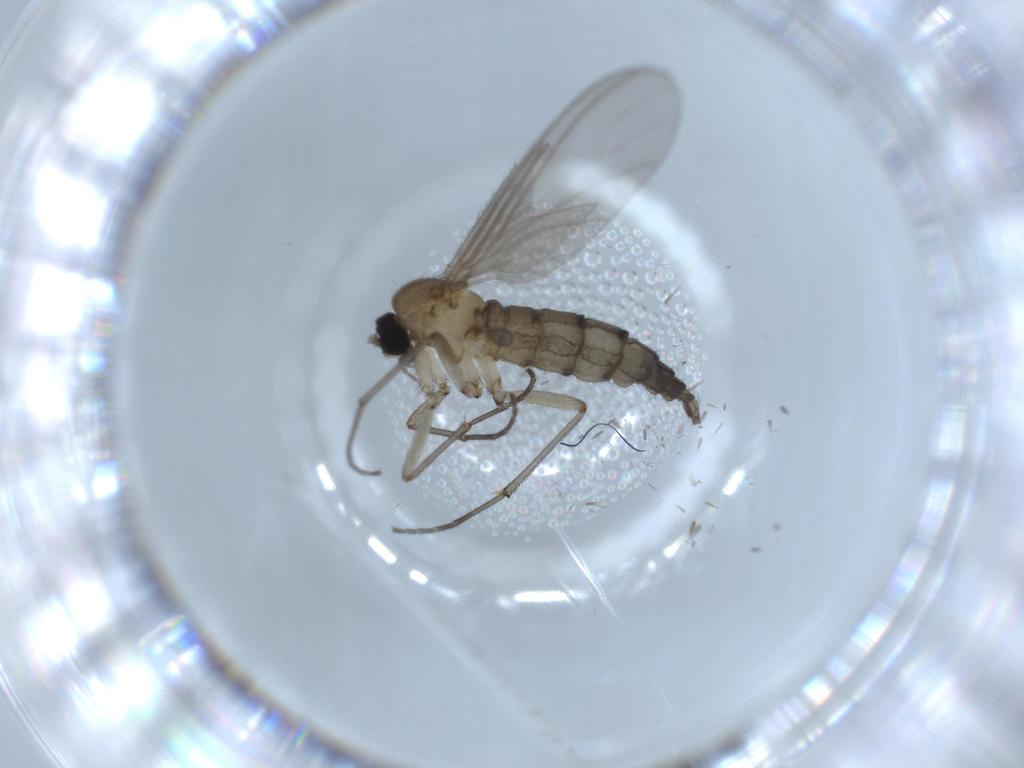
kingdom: Animalia
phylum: Arthropoda
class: Insecta
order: Diptera
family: Sciaridae
